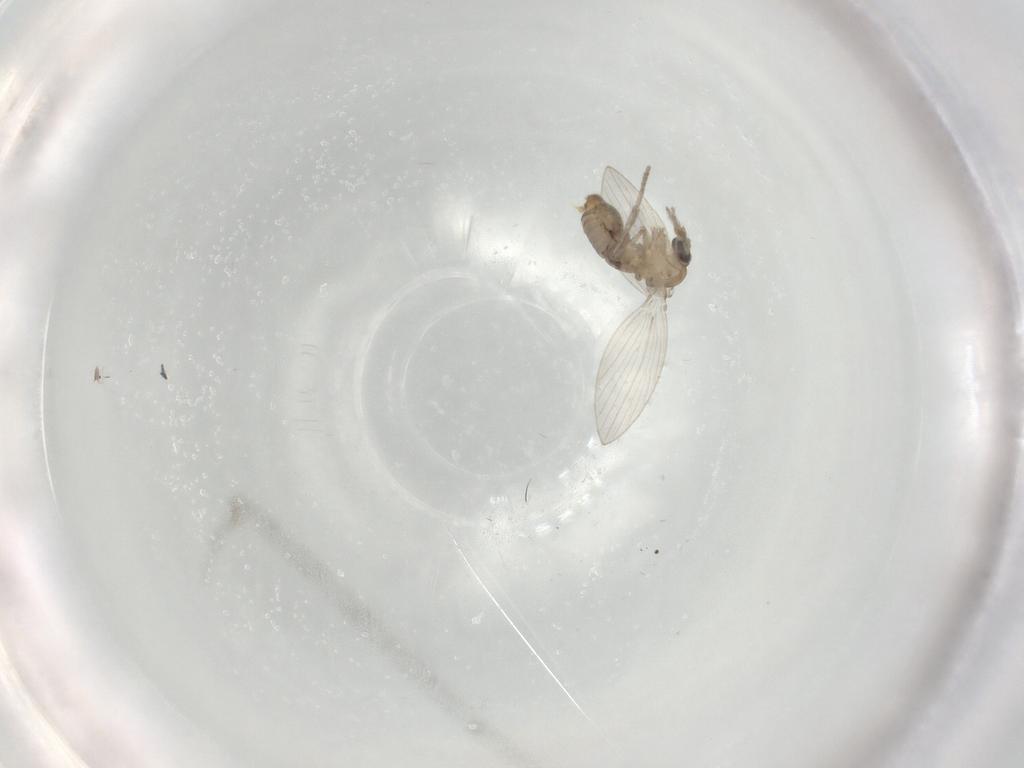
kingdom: Animalia
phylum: Arthropoda
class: Insecta
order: Diptera
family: Psychodidae
